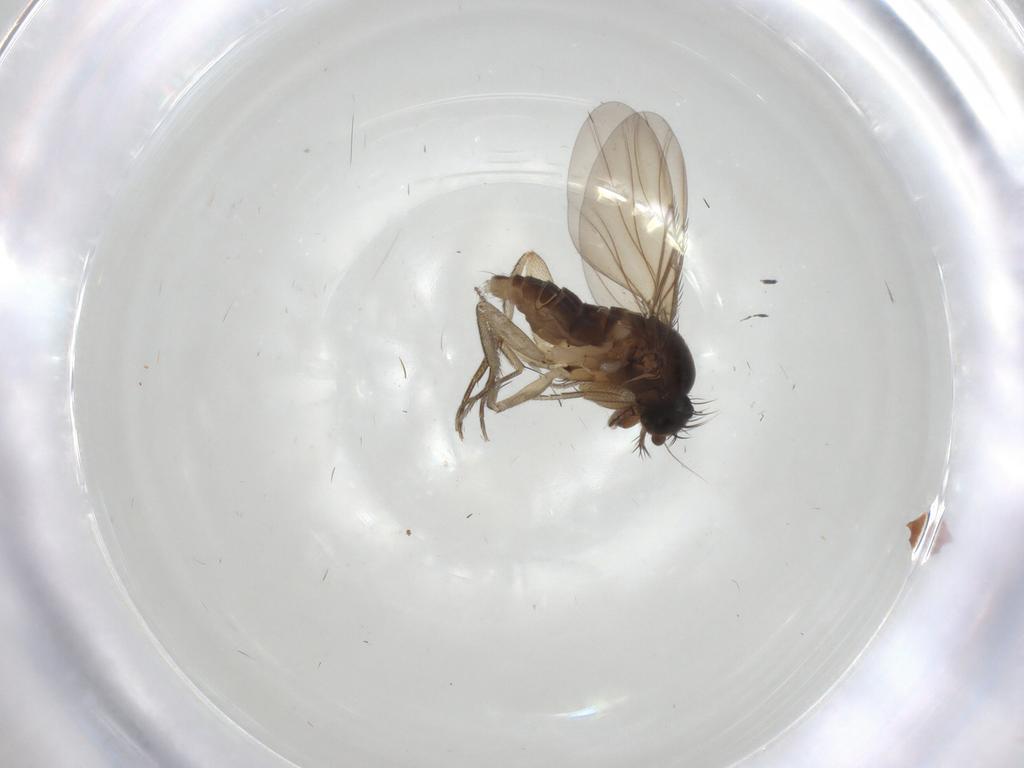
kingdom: Animalia
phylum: Arthropoda
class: Insecta
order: Diptera
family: Phoridae
